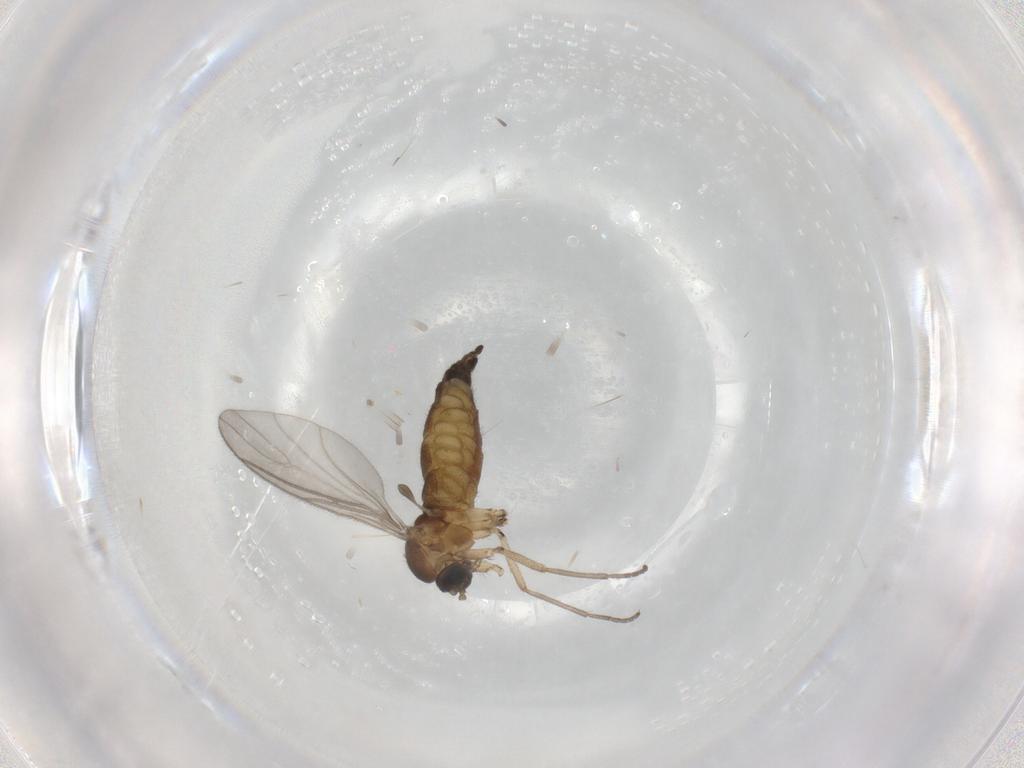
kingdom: Animalia
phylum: Arthropoda
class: Insecta
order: Diptera
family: Sciaridae
